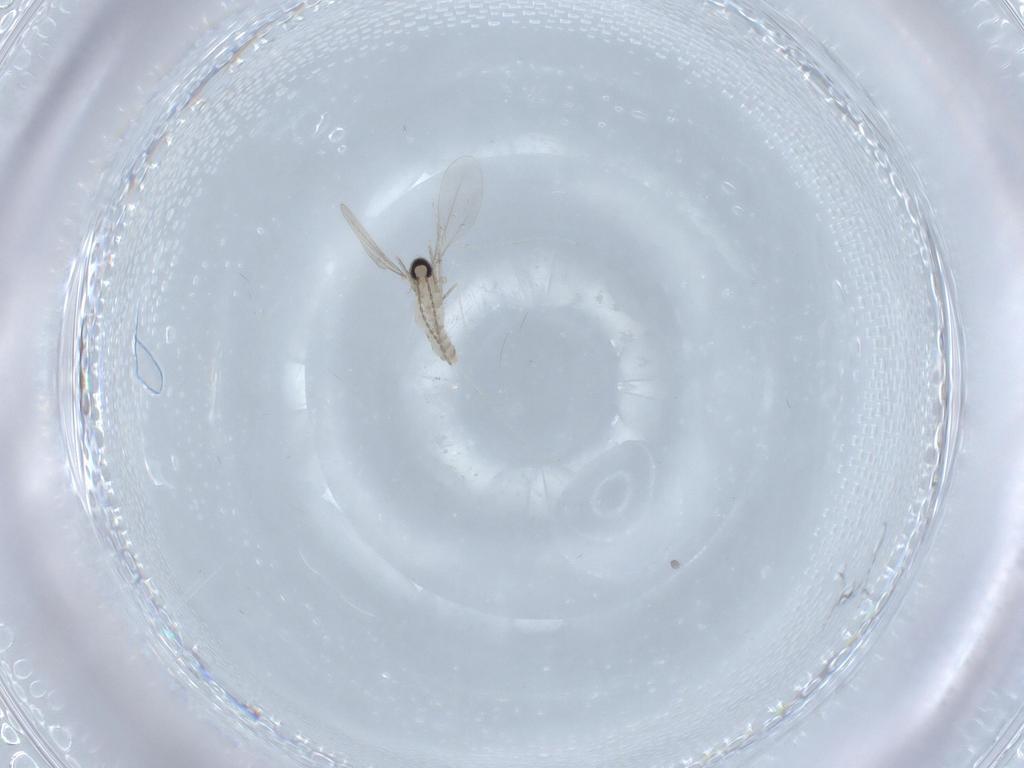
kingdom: Animalia
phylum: Arthropoda
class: Insecta
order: Diptera
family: Cecidomyiidae
